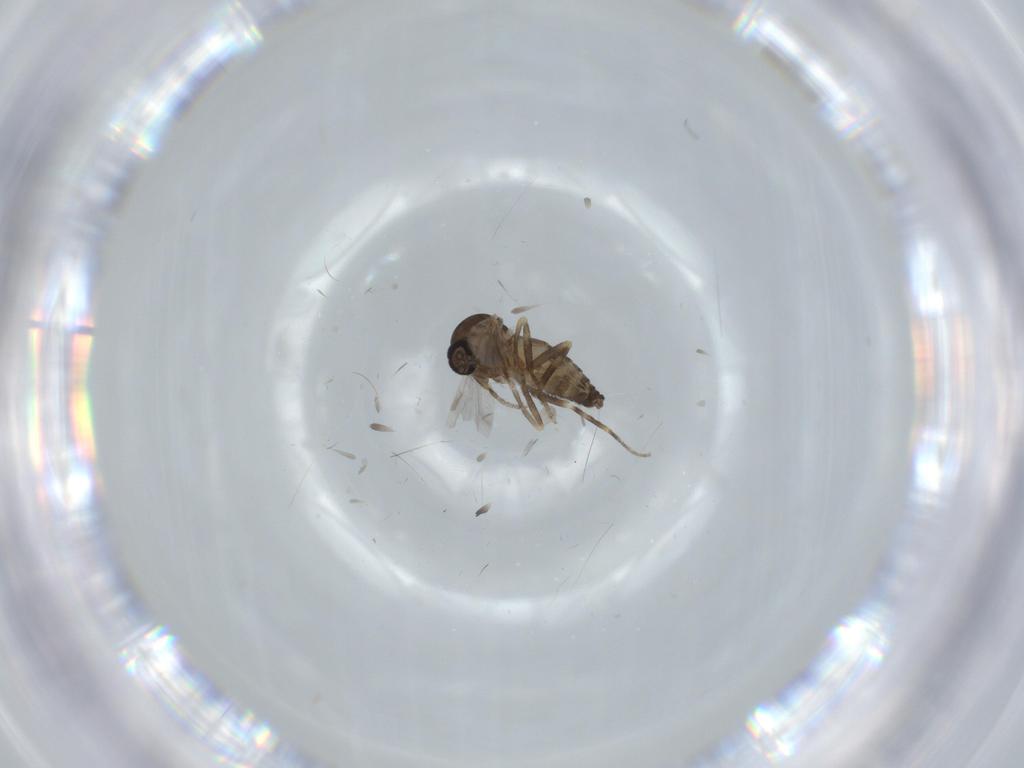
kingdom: Animalia
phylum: Arthropoda
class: Insecta
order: Diptera
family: Ceratopogonidae
